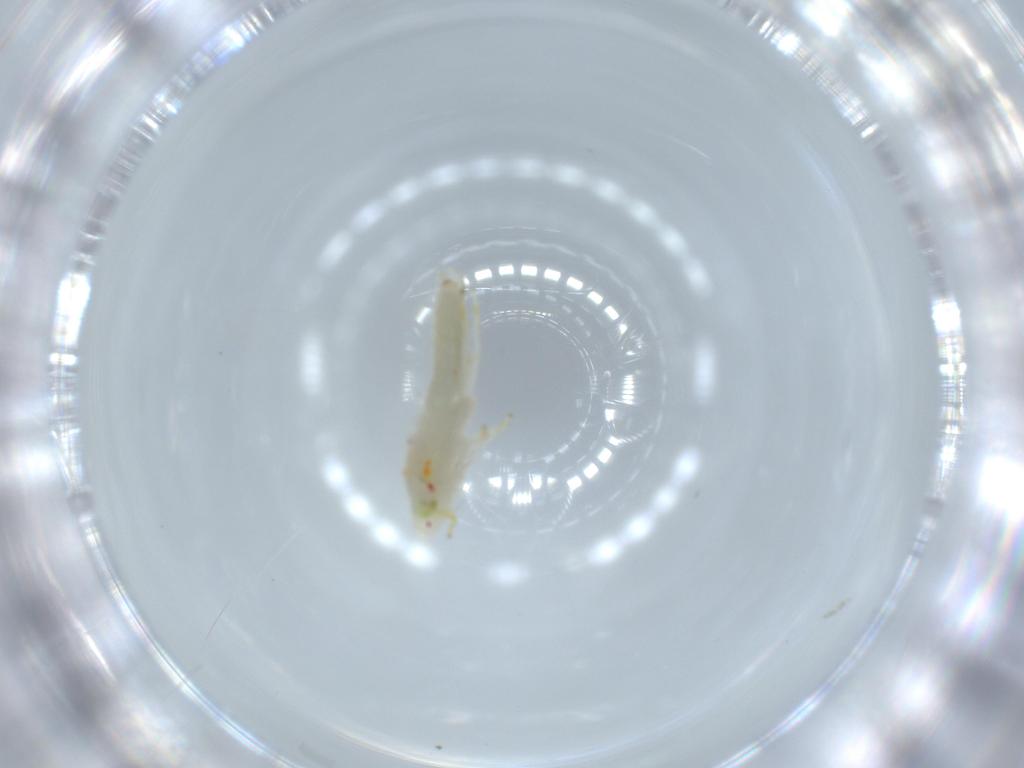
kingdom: Animalia
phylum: Arthropoda
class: Insecta
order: Hemiptera
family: Cicadellidae
